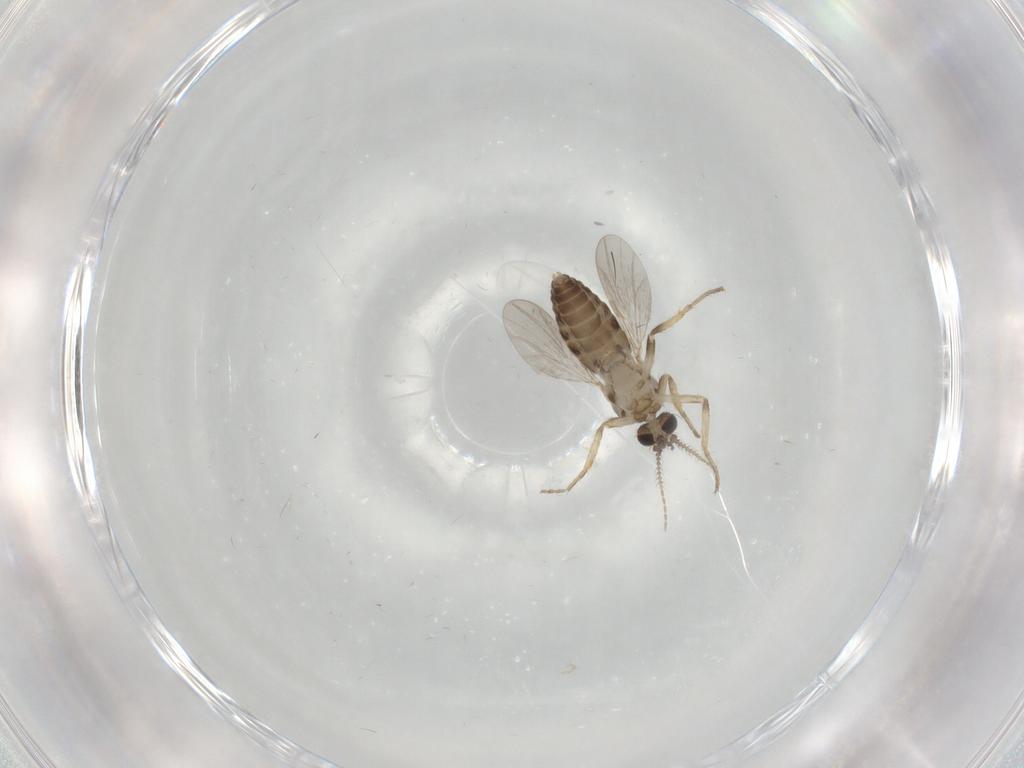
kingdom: Animalia
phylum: Arthropoda
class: Insecta
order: Diptera
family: Ceratopogonidae
